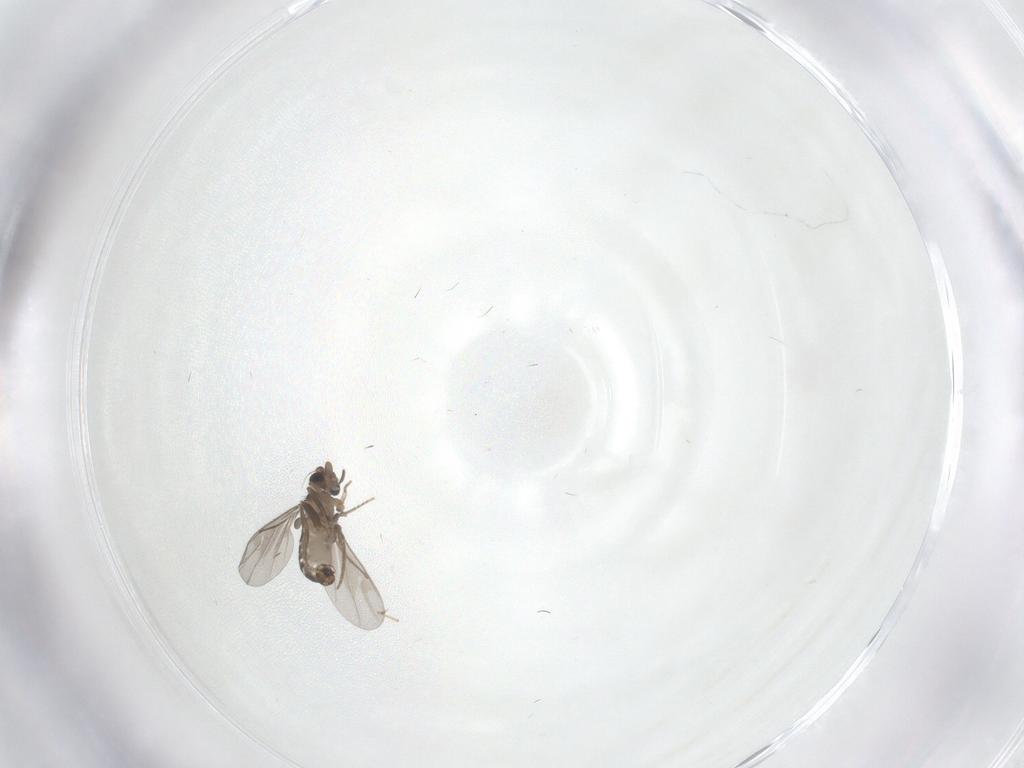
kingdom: Animalia
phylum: Arthropoda
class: Insecta
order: Diptera
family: Cecidomyiidae
